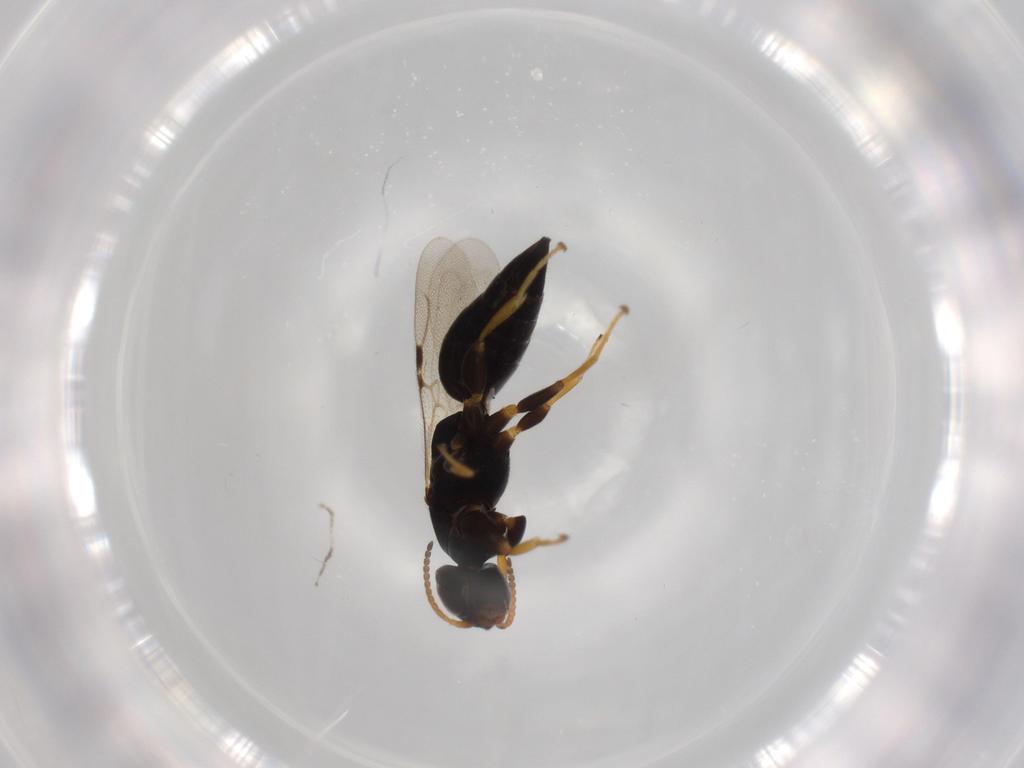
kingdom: Animalia
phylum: Arthropoda
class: Insecta
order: Hymenoptera
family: Bethylidae
